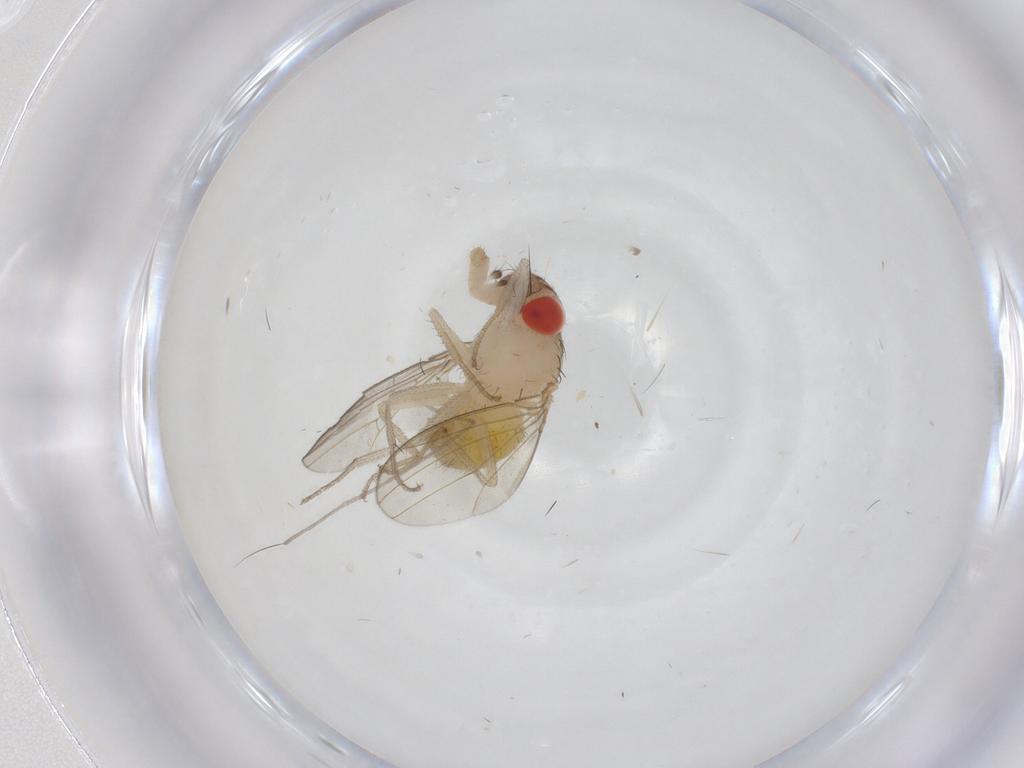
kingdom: Animalia
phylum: Arthropoda
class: Insecta
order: Diptera
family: Drosophilidae
